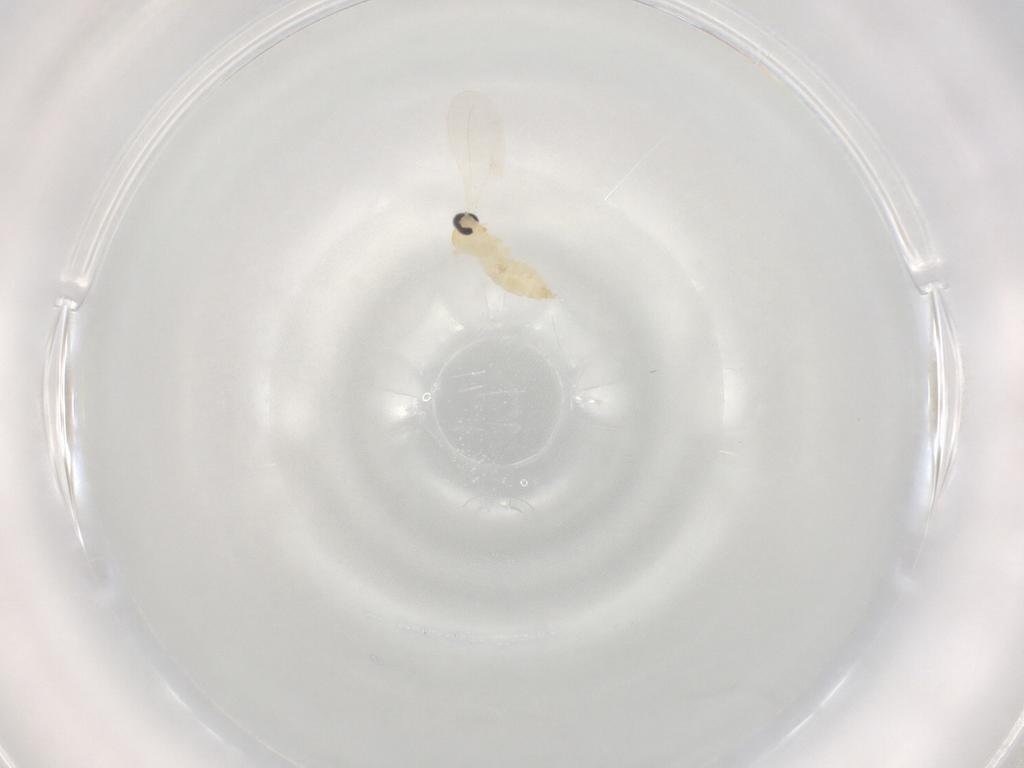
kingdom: Animalia
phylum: Arthropoda
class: Insecta
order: Diptera
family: Cecidomyiidae
